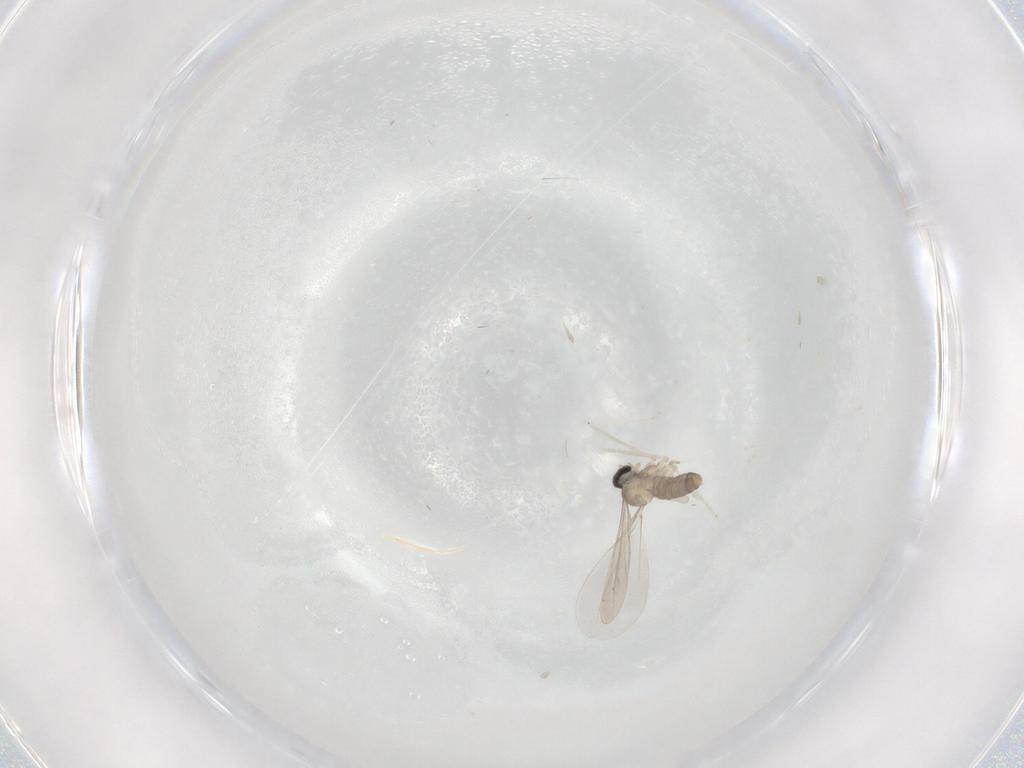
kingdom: Animalia
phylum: Arthropoda
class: Insecta
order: Diptera
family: Cecidomyiidae
